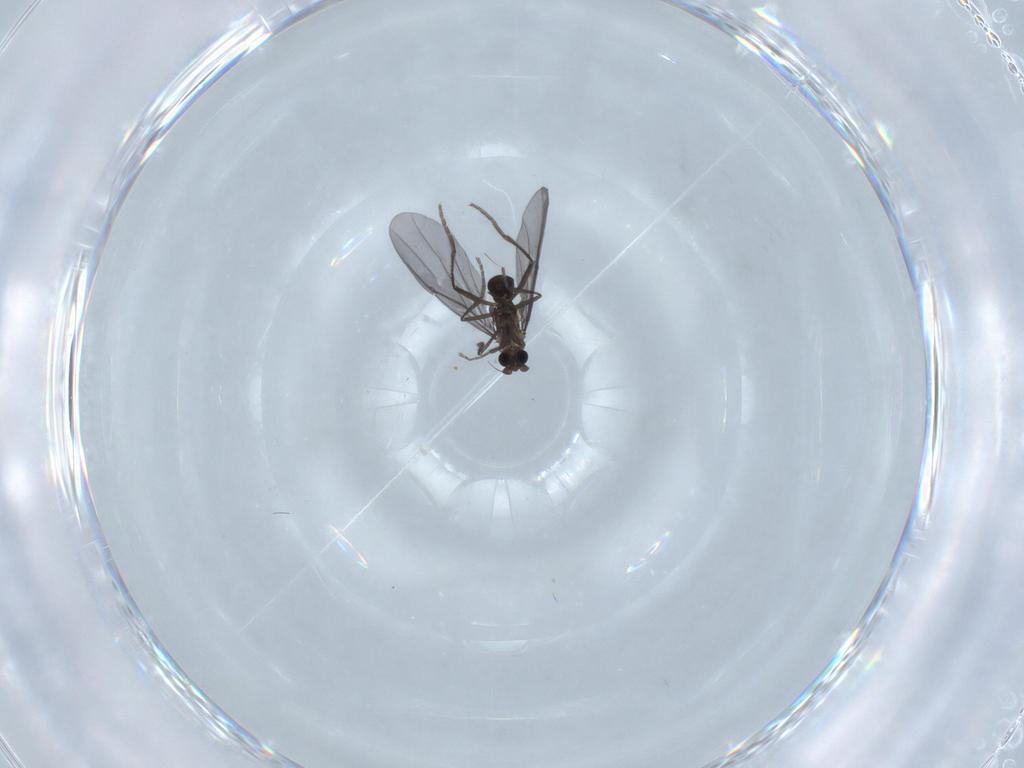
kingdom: Animalia
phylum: Arthropoda
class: Insecta
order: Diptera
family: Phoridae
